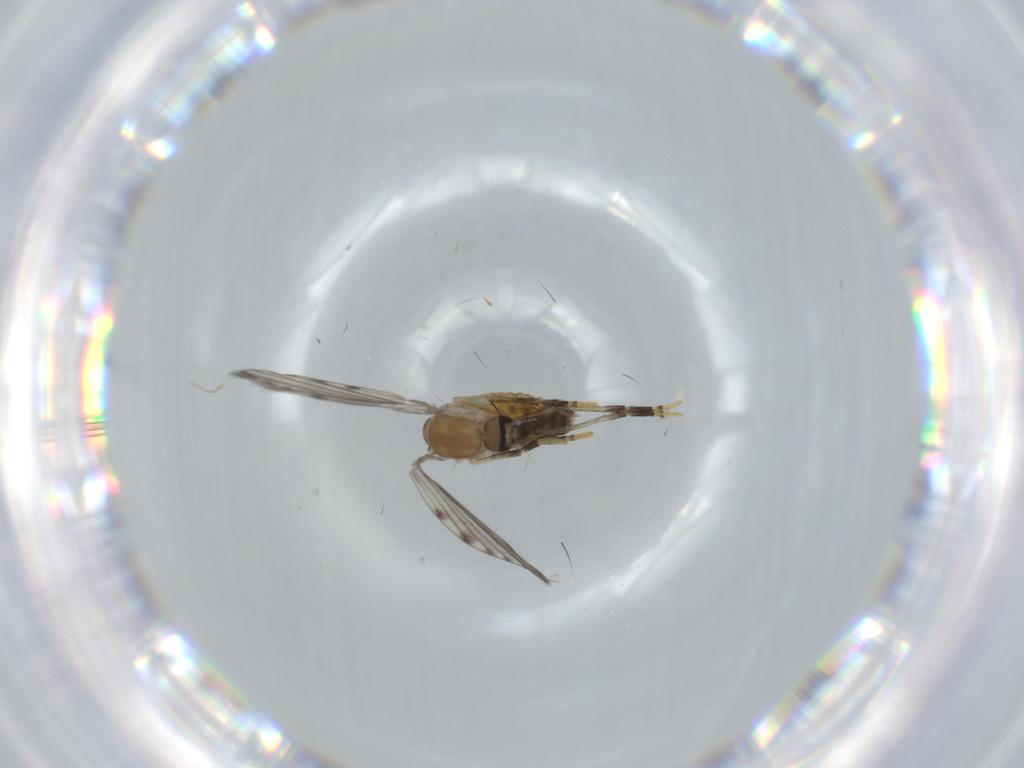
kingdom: Animalia
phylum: Arthropoda
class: Insecta
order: Diptera
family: Psychodidae
